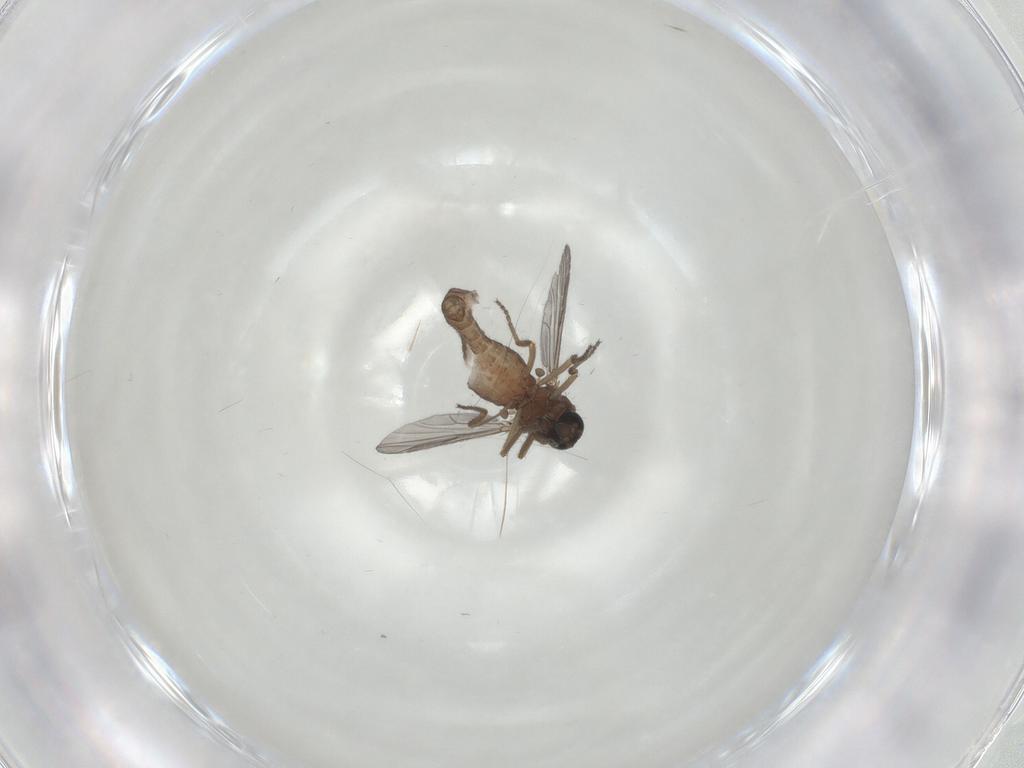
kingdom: Animalia
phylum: Arthropoda
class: Insecta
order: Diptera
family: Ceratopogonidae
